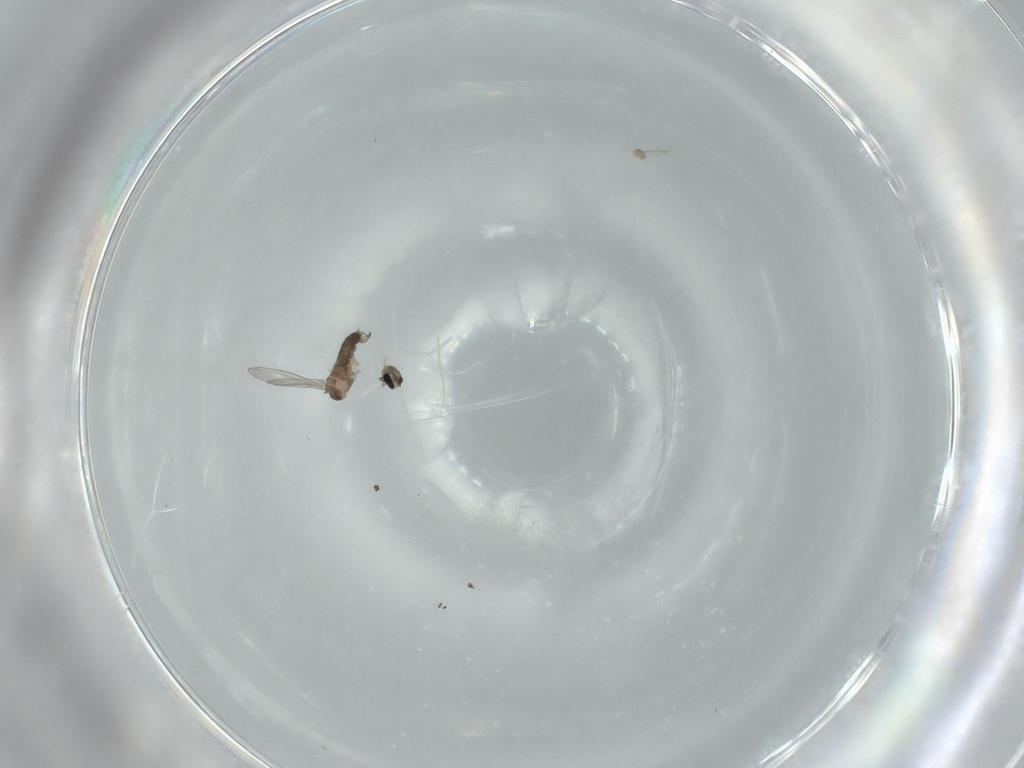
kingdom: Animalia
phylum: Arthropoda
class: Insecta
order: Diptera
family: Cecidomyiidae
